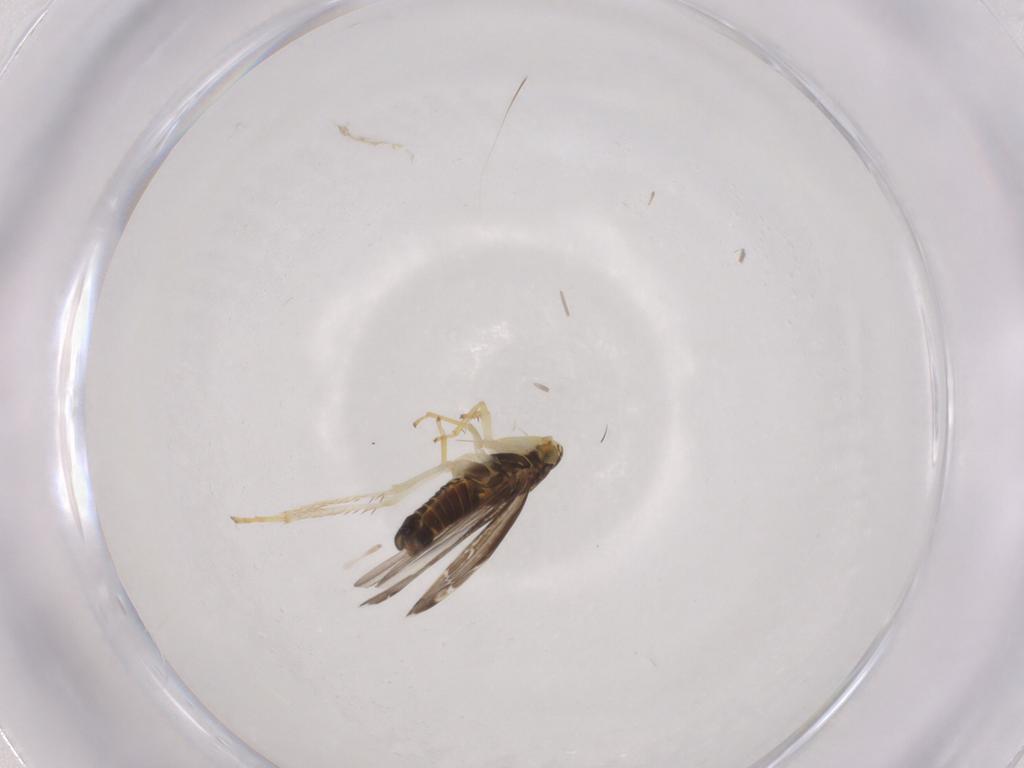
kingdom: Animalia
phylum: Arthropoda
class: Insecta
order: Hemiptera
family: Cicadellidae
